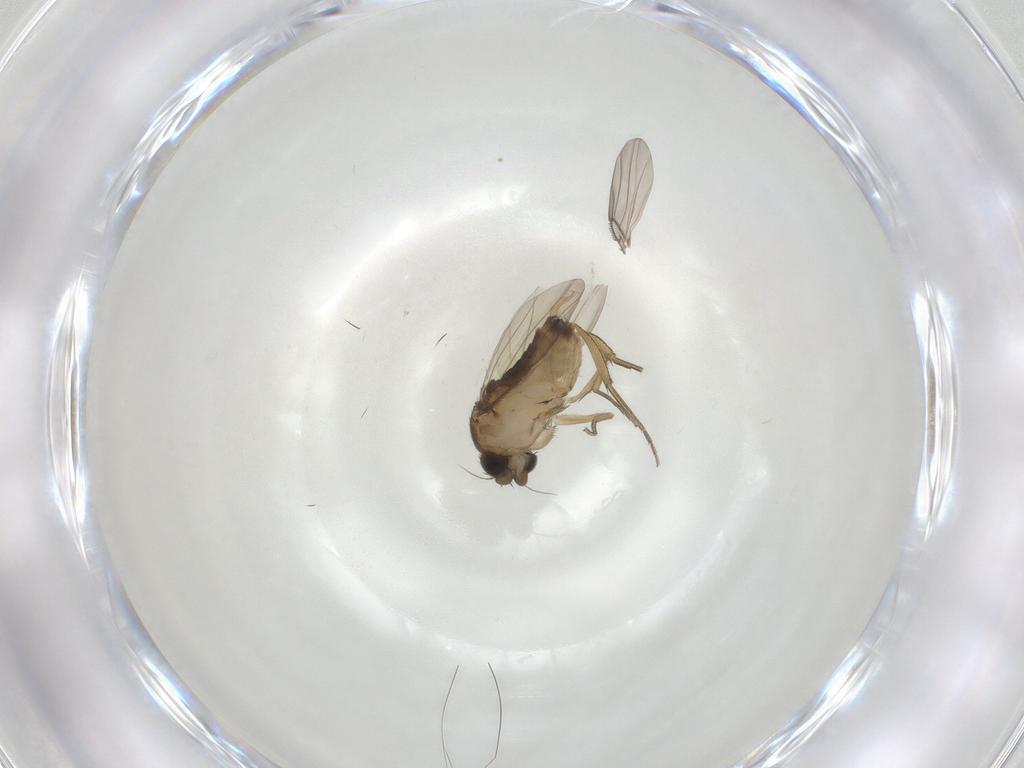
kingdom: Animalia
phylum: Arthropoda
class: Insecta
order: Diptera
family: Phoridae
